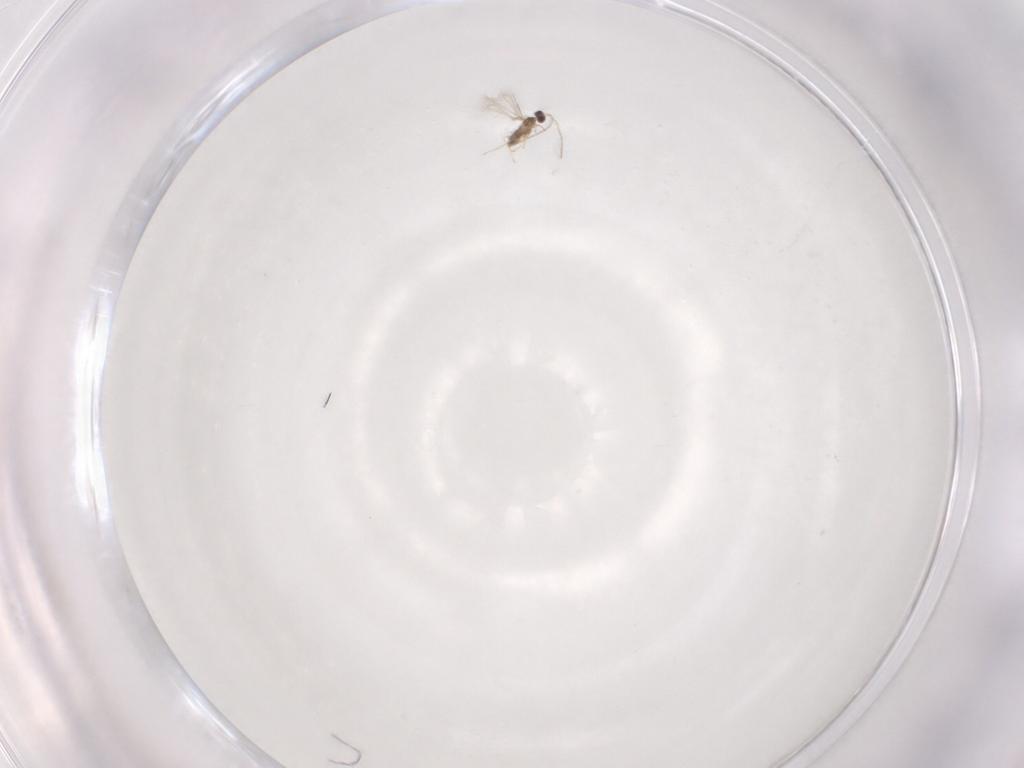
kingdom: Animalia
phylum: Arthropoda
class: Insecta
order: Hymenoptera
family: Mymaridae
